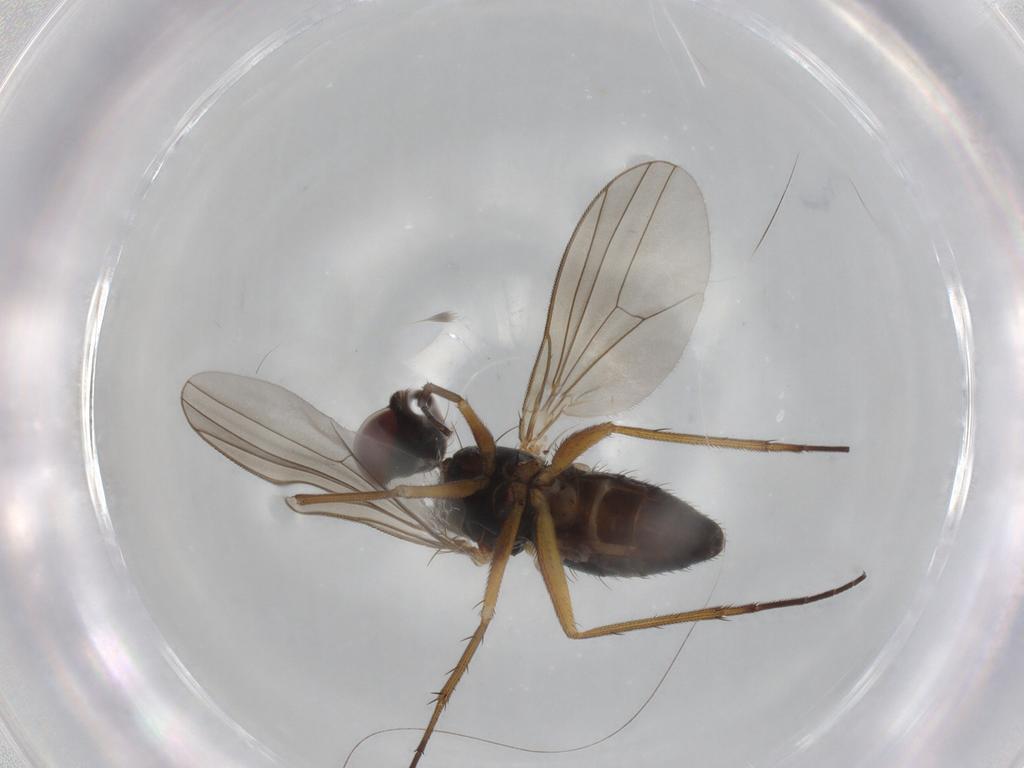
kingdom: Animalia
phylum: Arthropoda
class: Insecta
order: Diptera
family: Dolichopodidae
